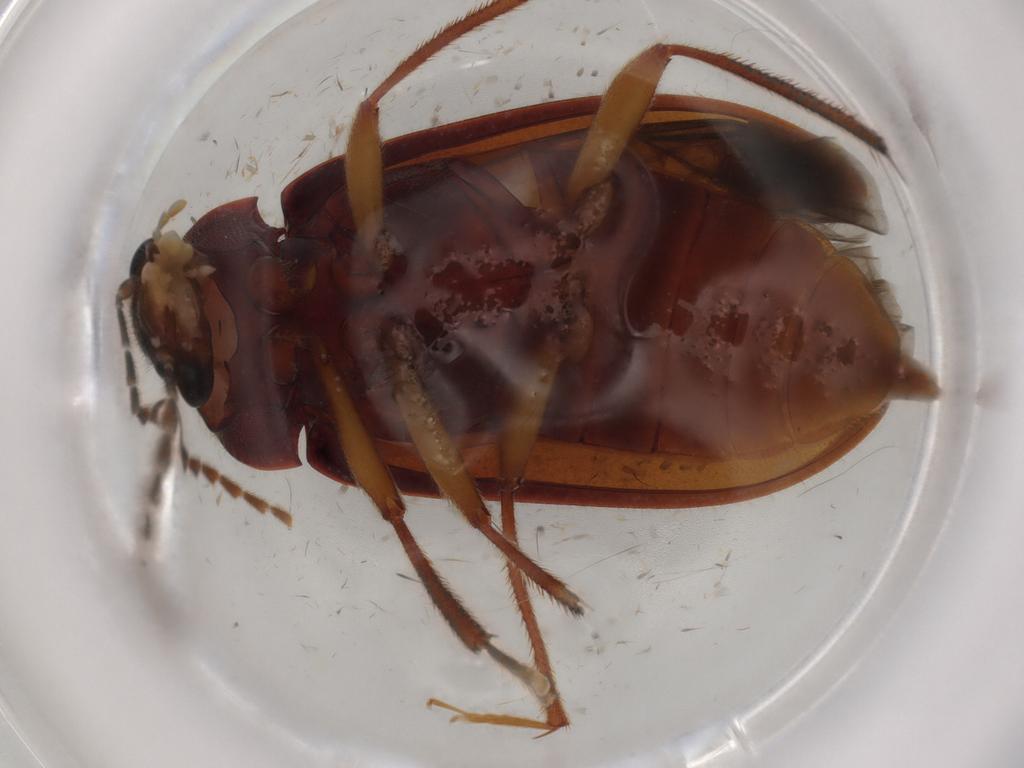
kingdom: Animalia
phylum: Arthropoda
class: Insecta
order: Coleoptera
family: Ptilodactylidae
